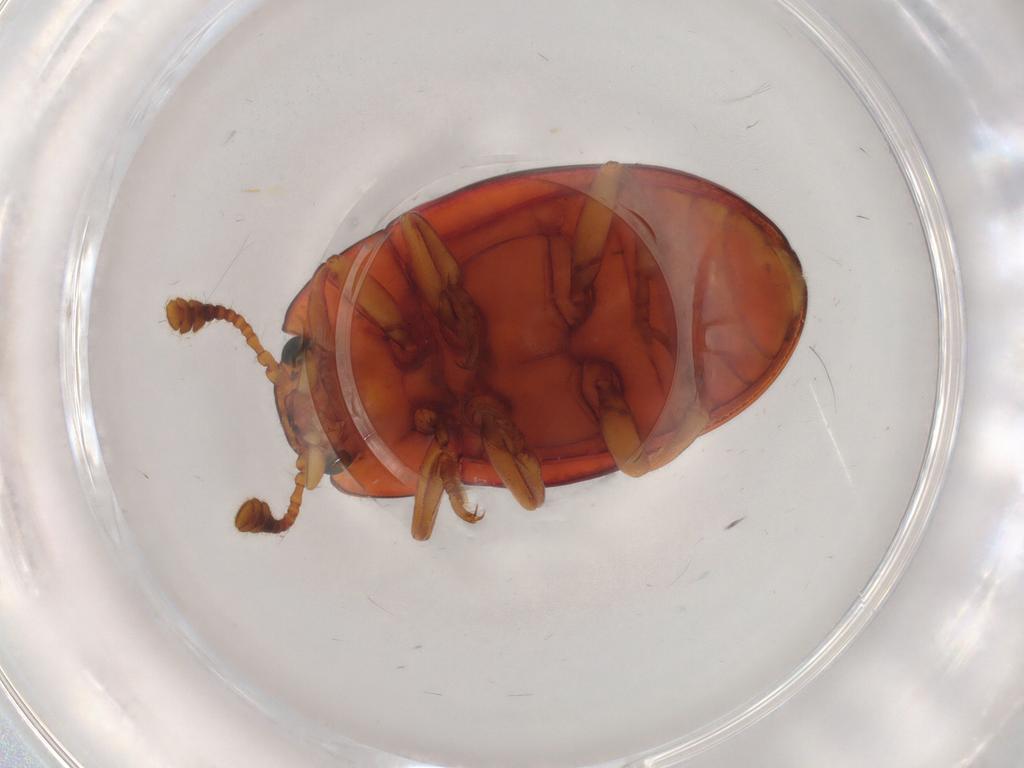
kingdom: Animalia
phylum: Arthropoda
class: Insecta
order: Coleoptera
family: Erotylidae
